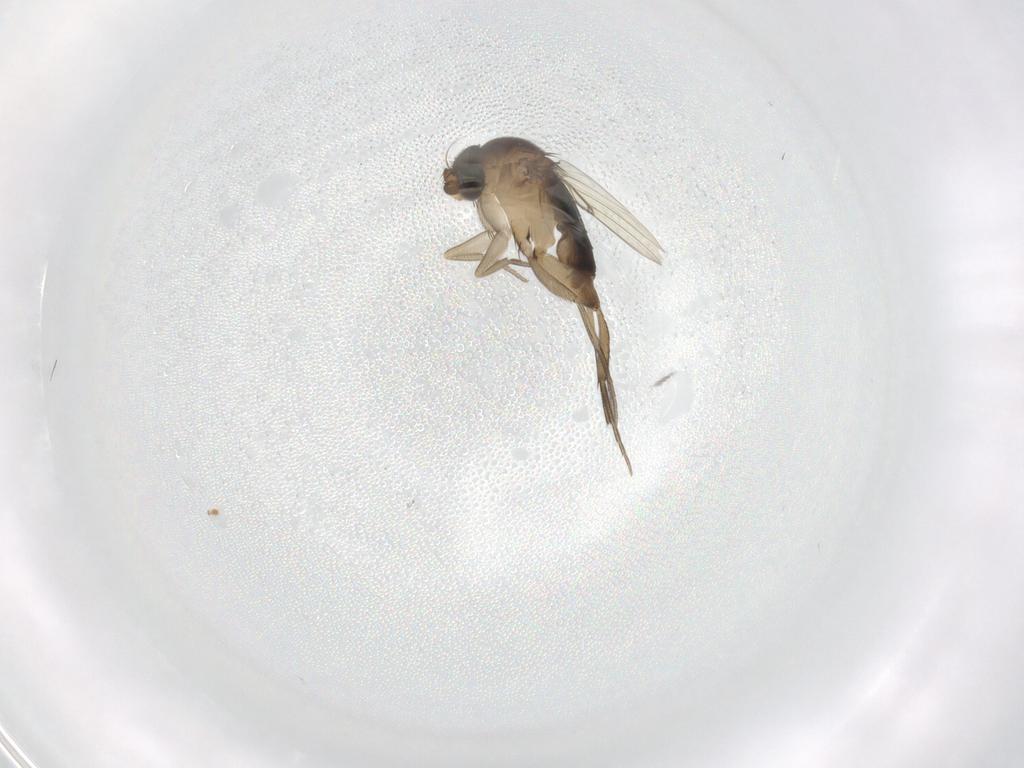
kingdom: Animalia
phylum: Arthropoda
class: Insecta
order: Diptera
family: Phoridae
